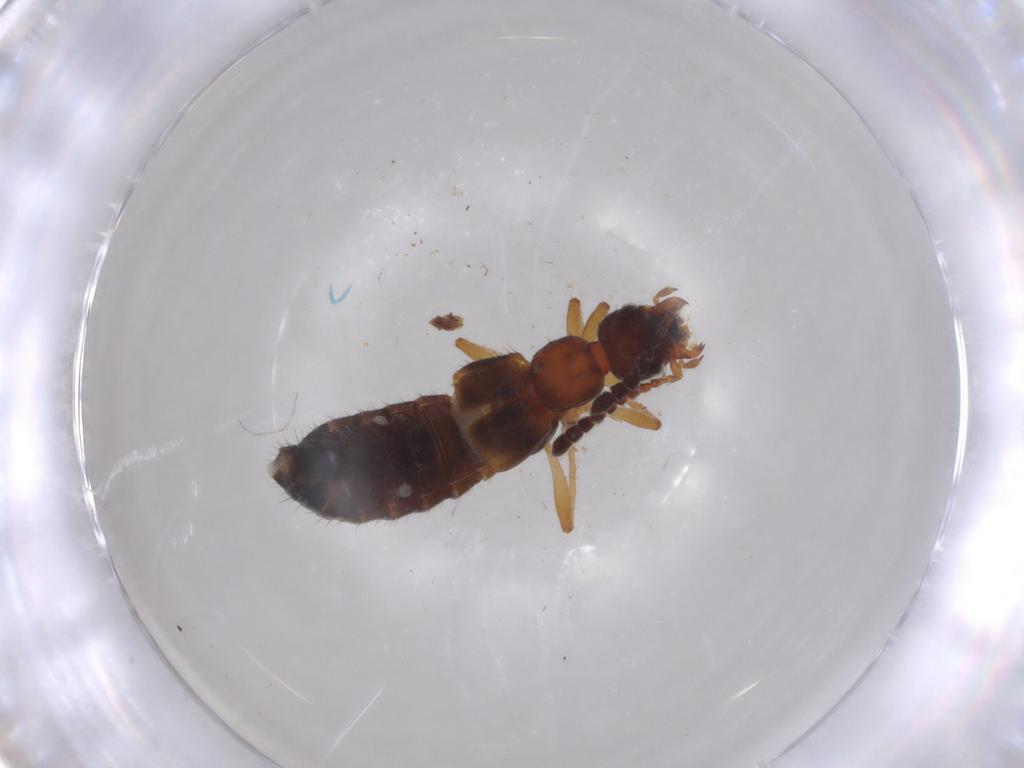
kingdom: Animalia
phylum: Arthropoda
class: Insecta
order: Coleoptera
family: Staphylinidae
